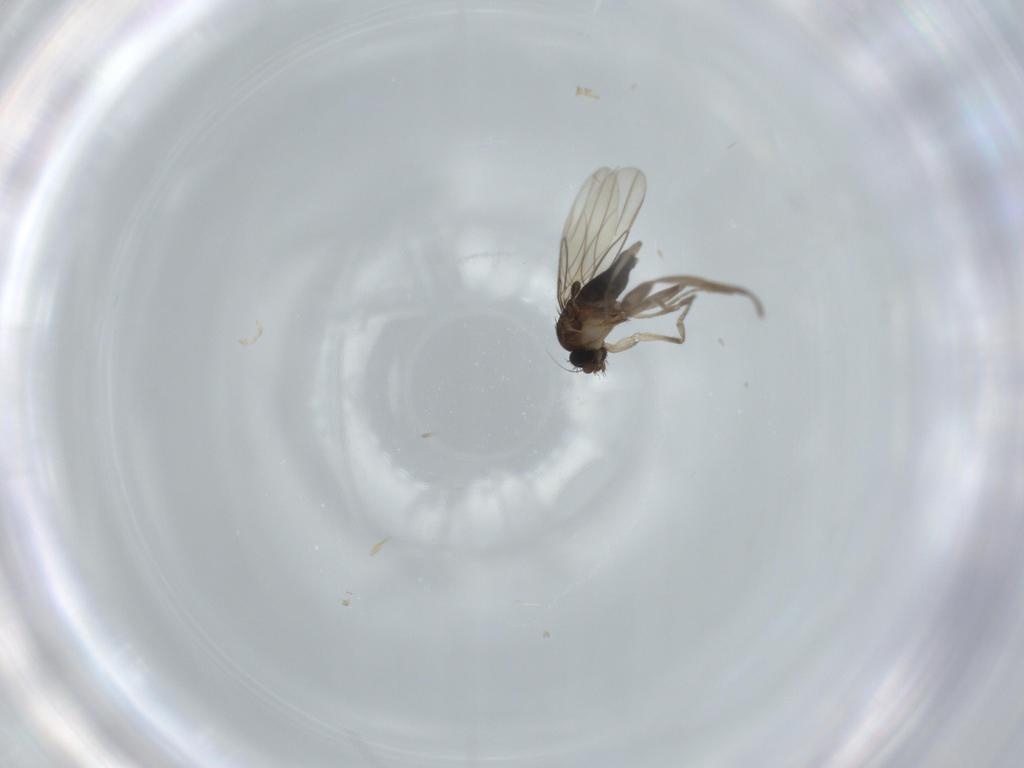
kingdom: Animalia
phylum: Arthropoda
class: Insecta
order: Diptera
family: Phoridae
